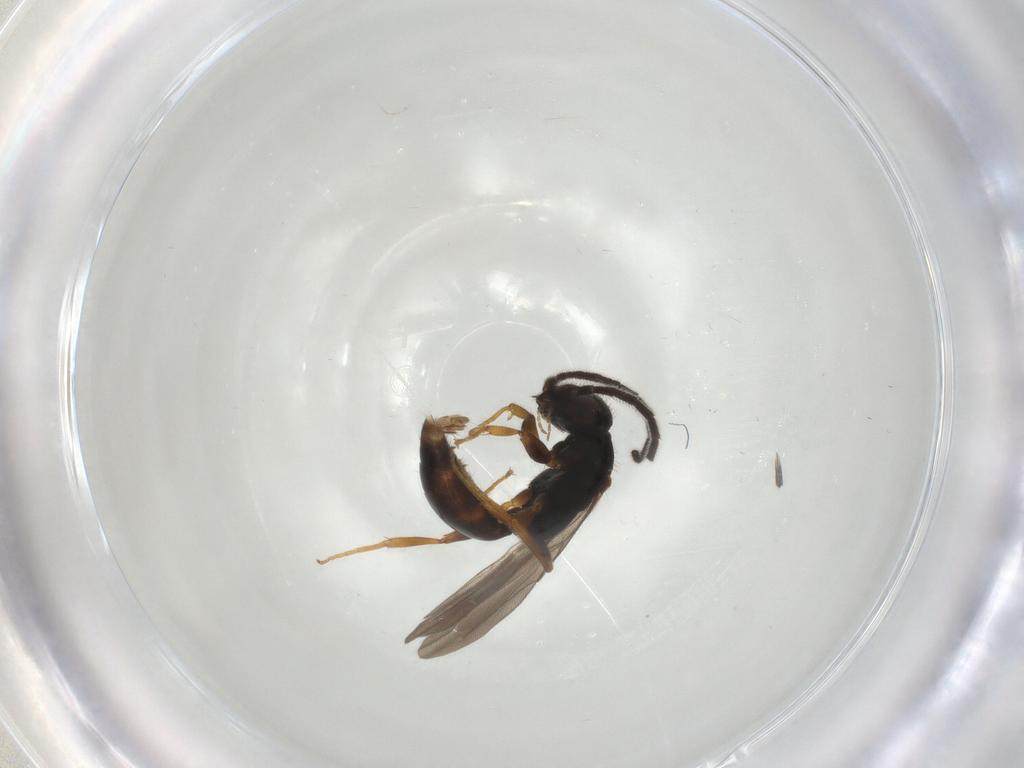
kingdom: Animalia
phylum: Arthropoda
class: Insecta
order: Hymenoptera
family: Bethylidae
